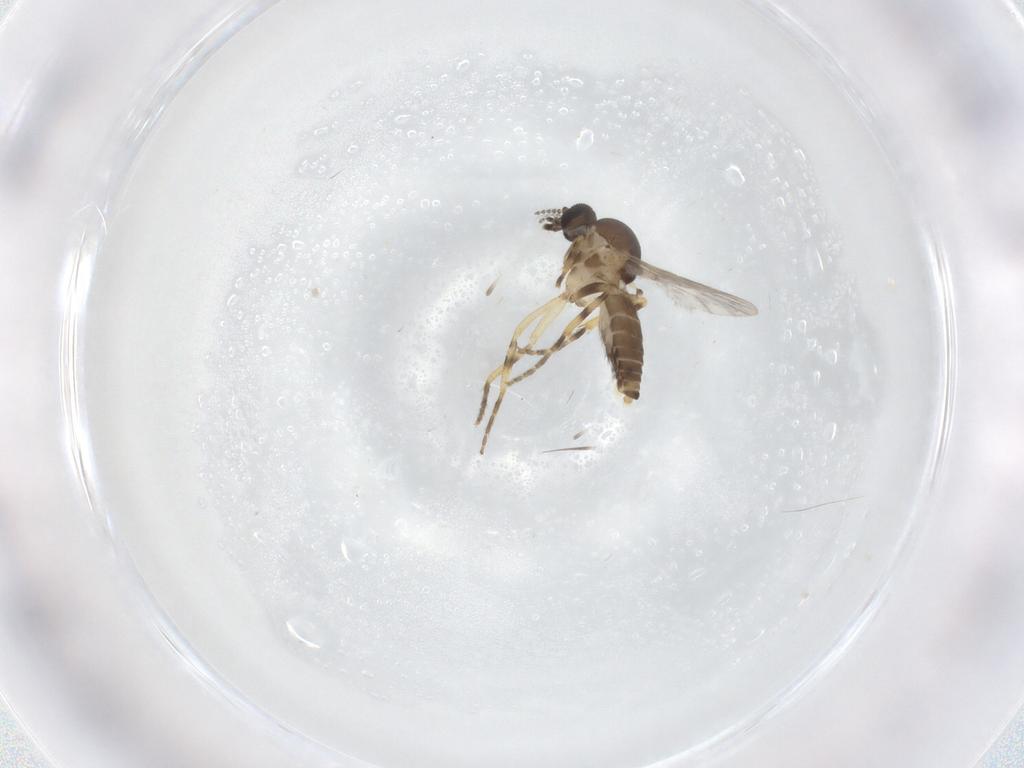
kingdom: Animalia
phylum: Arthropoda
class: Insecta
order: Diptera
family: Ceratopogonidae
